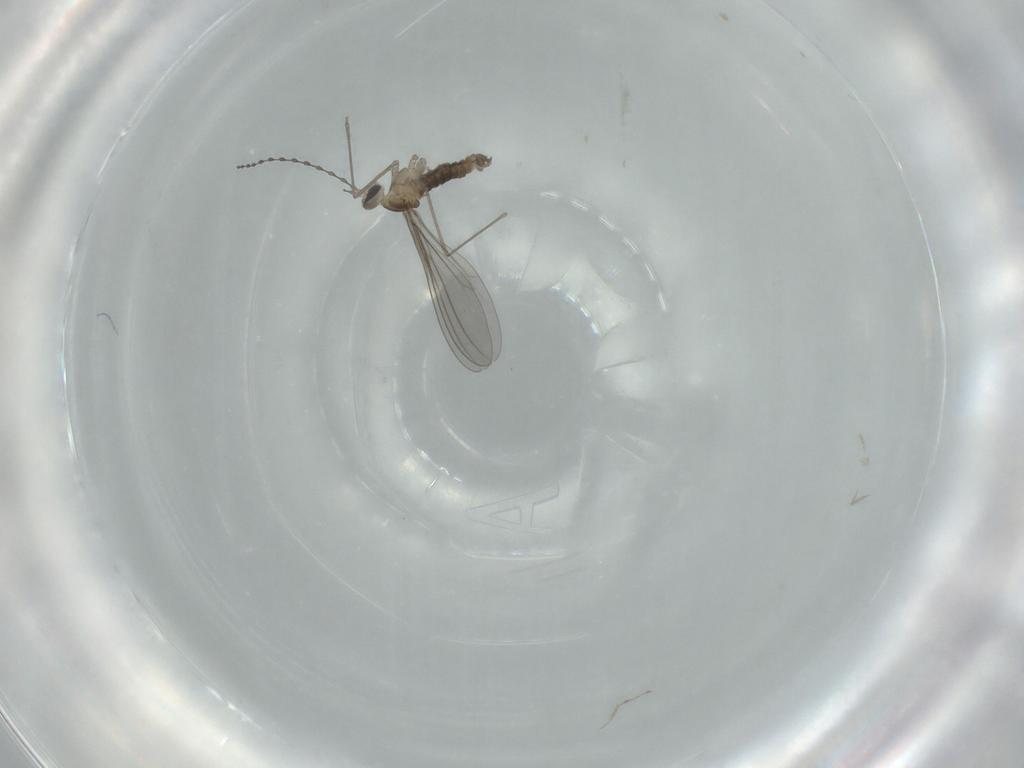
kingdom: Animalia
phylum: Arthropoda
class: Insecta
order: Diptera
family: Cecidomyiidae
